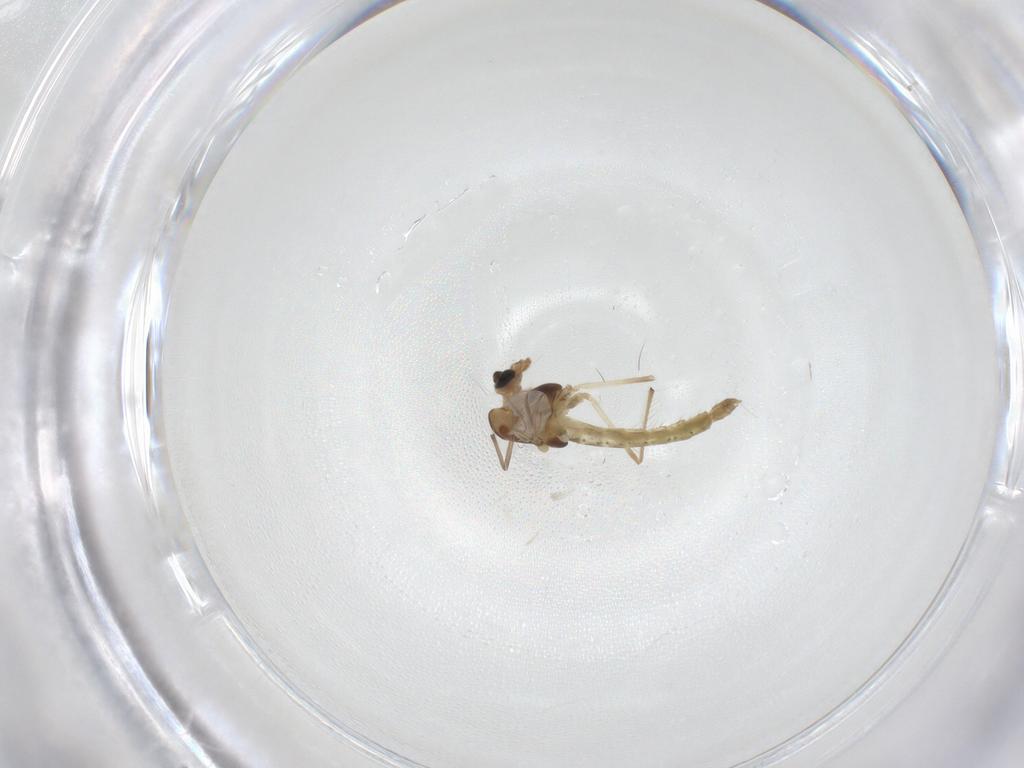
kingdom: Animalia
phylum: Arthropoda
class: Insecta
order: Diptera
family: Chironomidae
